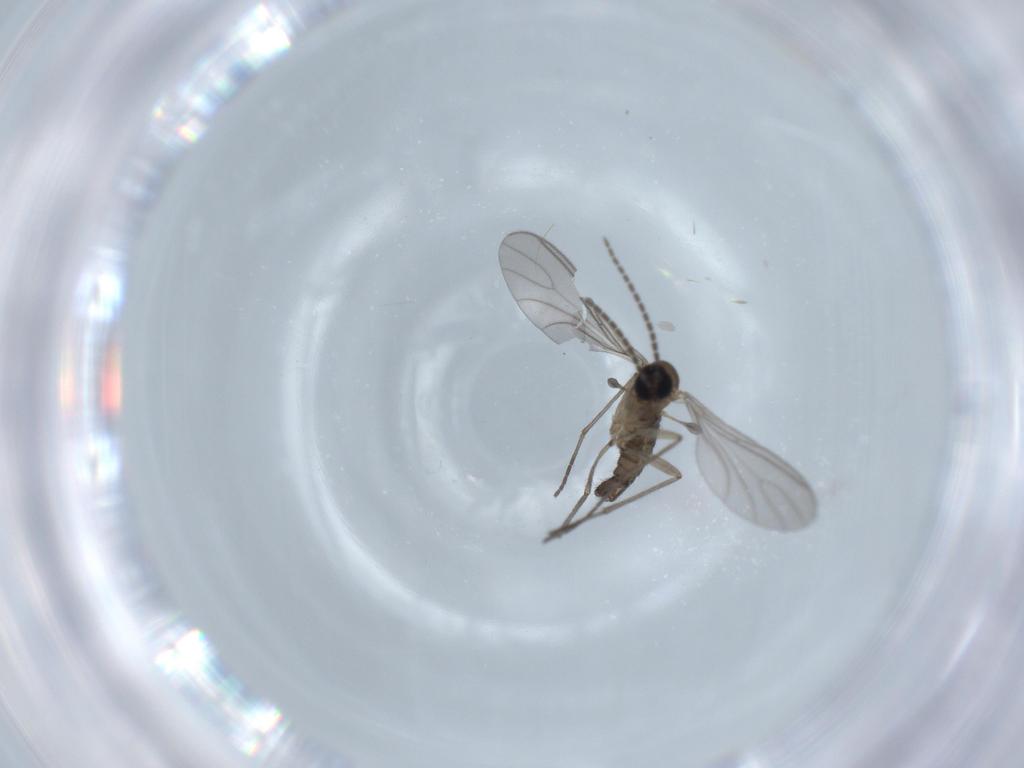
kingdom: Animalia
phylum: Arthropoda
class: Insecta
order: Diptera
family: Sciaridae
